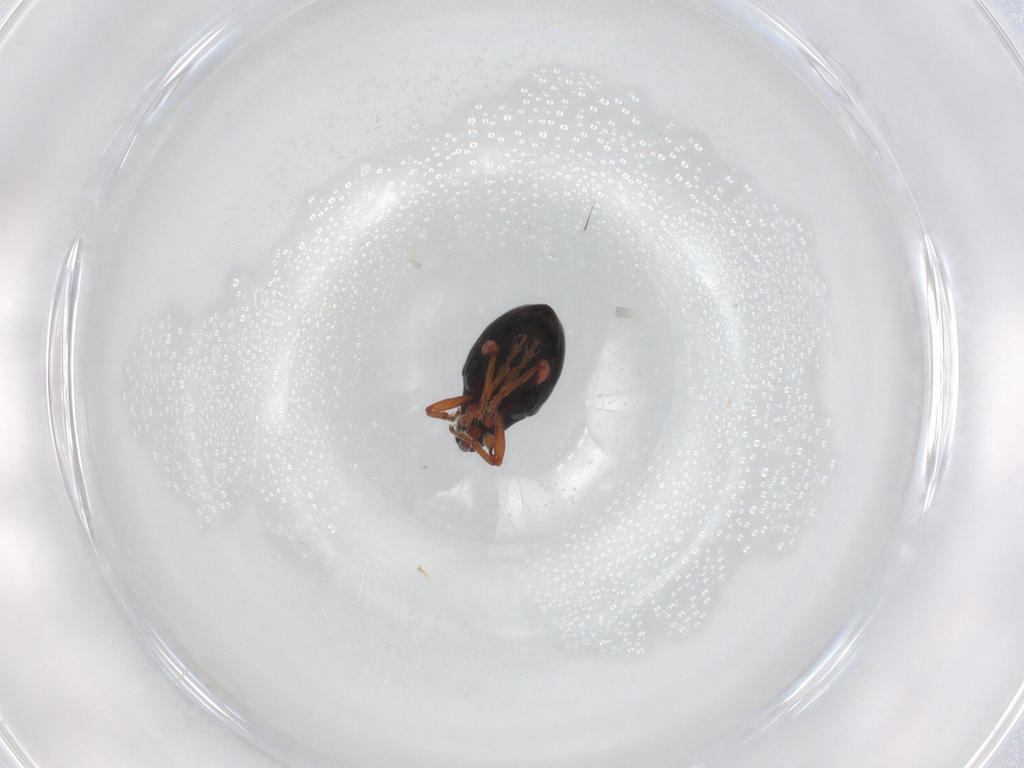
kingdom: Animalia
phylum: Arthropoda
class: Insecta
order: Coleoptera
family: Curculionidae
